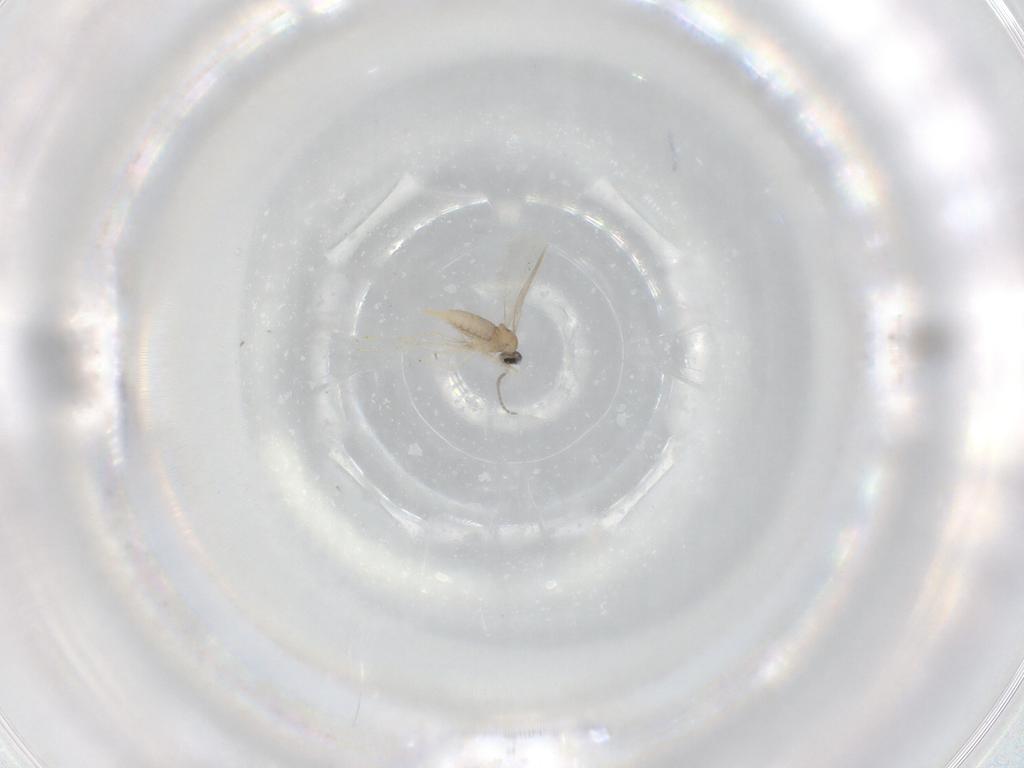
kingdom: Animalia
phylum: Arthropoda
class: Insecta
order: Diptera
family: Cecidomyiidae
